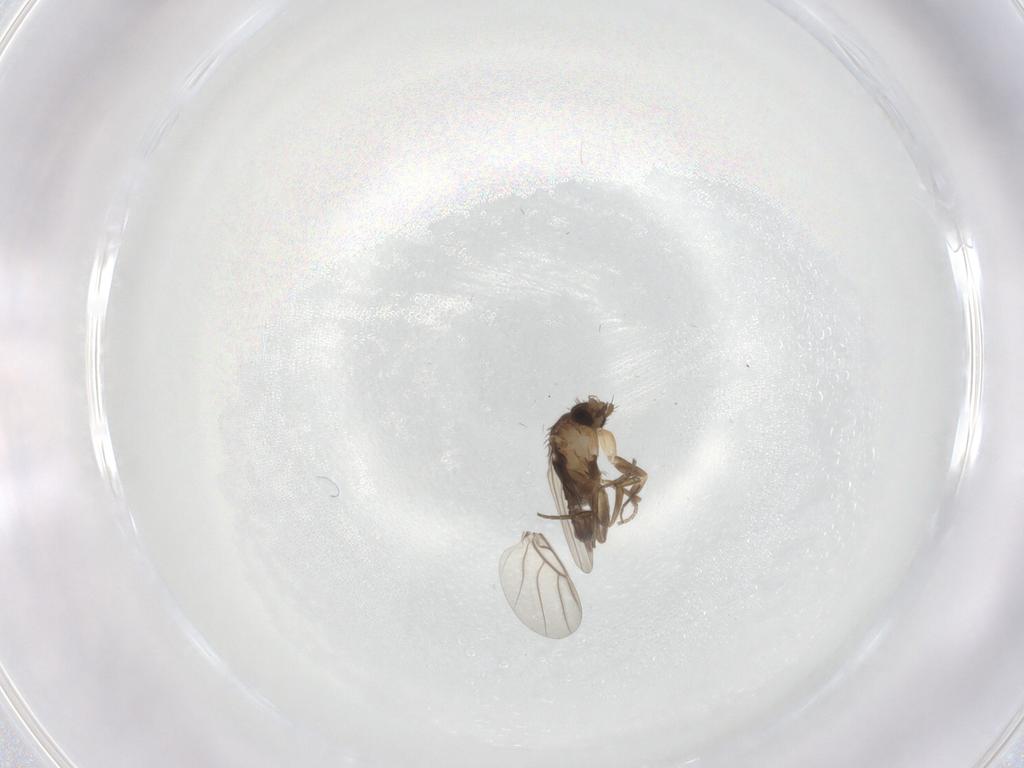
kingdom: Animalia
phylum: Arthropoda
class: Insecta
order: Diptera
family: Phoridae
